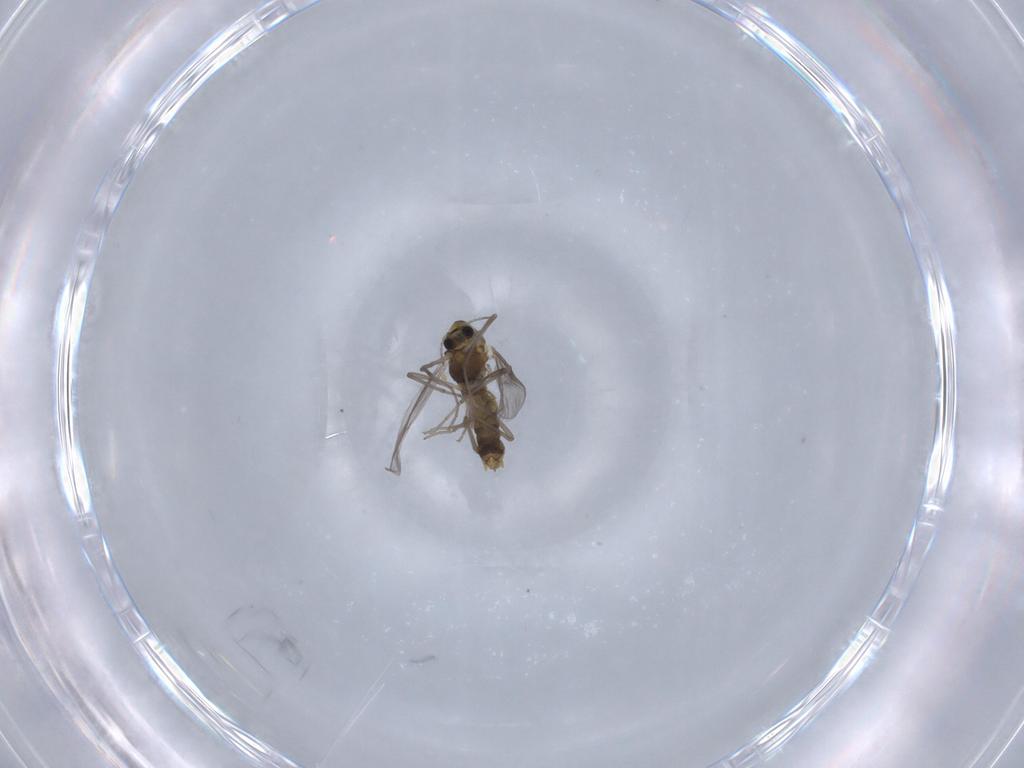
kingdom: Animalia
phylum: Arthropoda
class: Insecta
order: Diptera
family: Chironomidae
